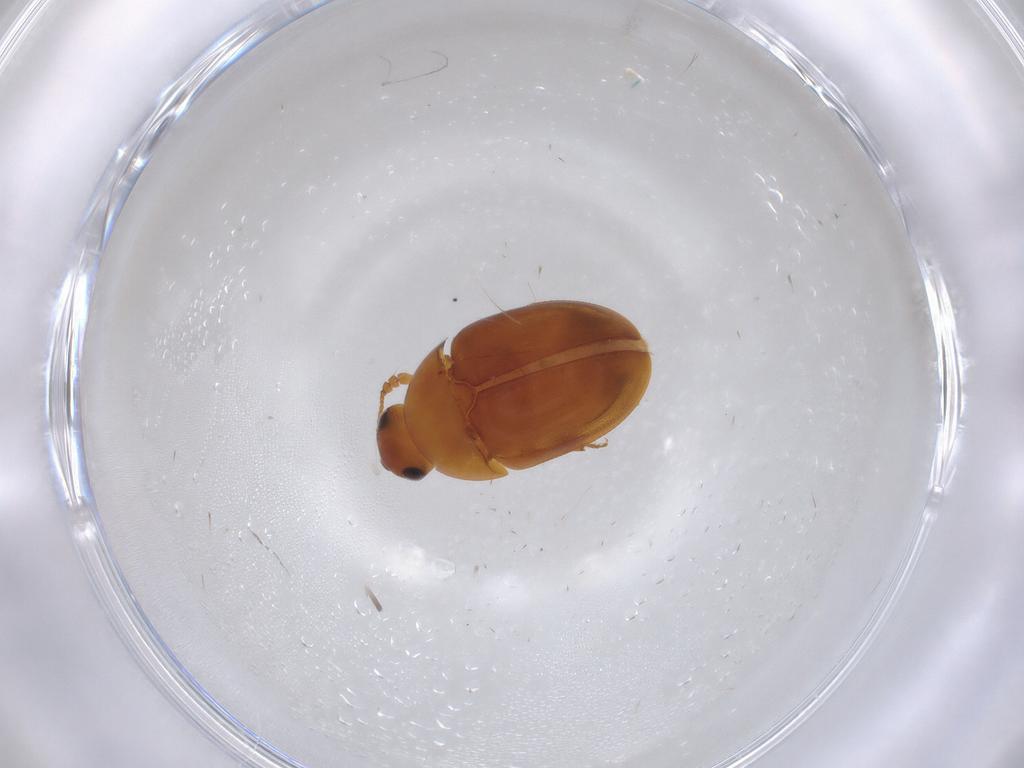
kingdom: Animalia
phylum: Arthropoda
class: Insecta
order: Coleoptera
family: Phalacridae
